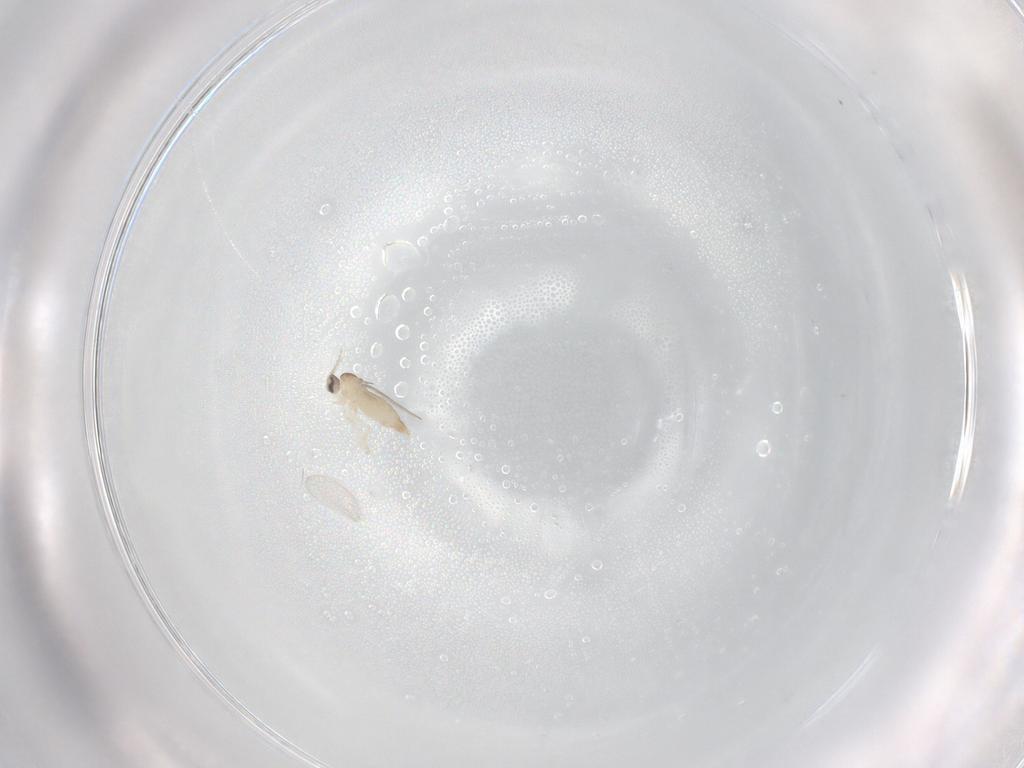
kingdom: Animalia
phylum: Arthropoda
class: Insecta
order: Diptera
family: Cecidomyiidae
